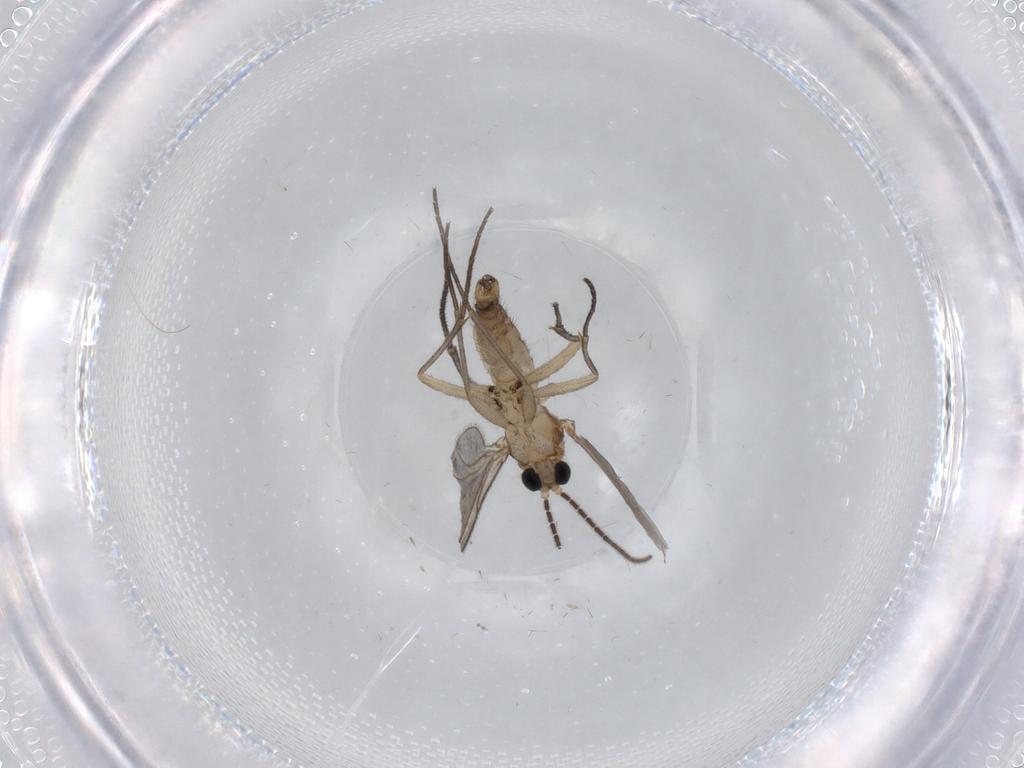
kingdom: Animalia
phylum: Arthropoda
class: Insecta
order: Diptera
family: Sciaridae
